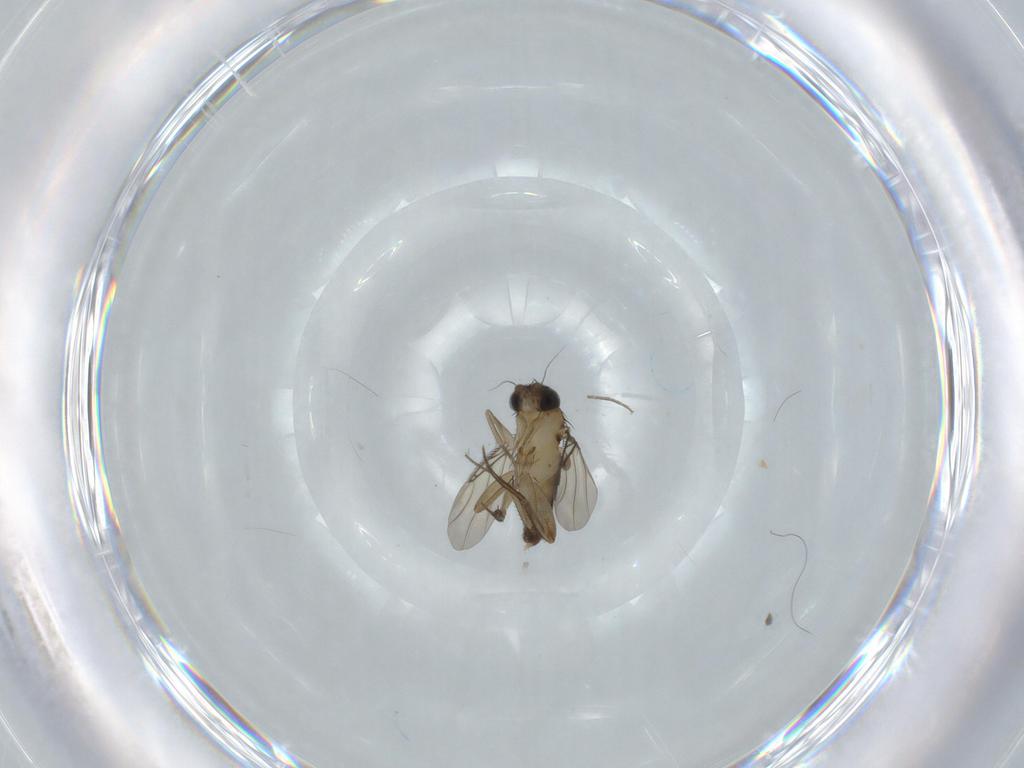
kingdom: Animalia
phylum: Arthropoda
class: Insecta
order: Diptera
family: Phoridae
